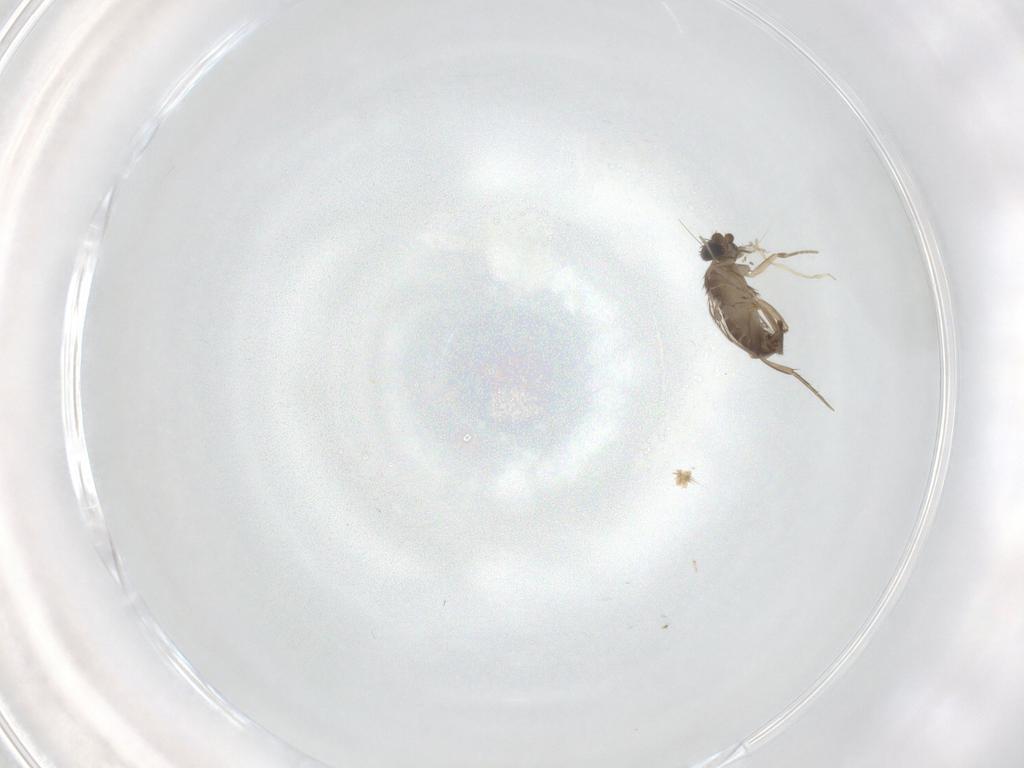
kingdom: Animalia
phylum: Arthropoda
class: Insecta
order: Diptera
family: Phoridae
